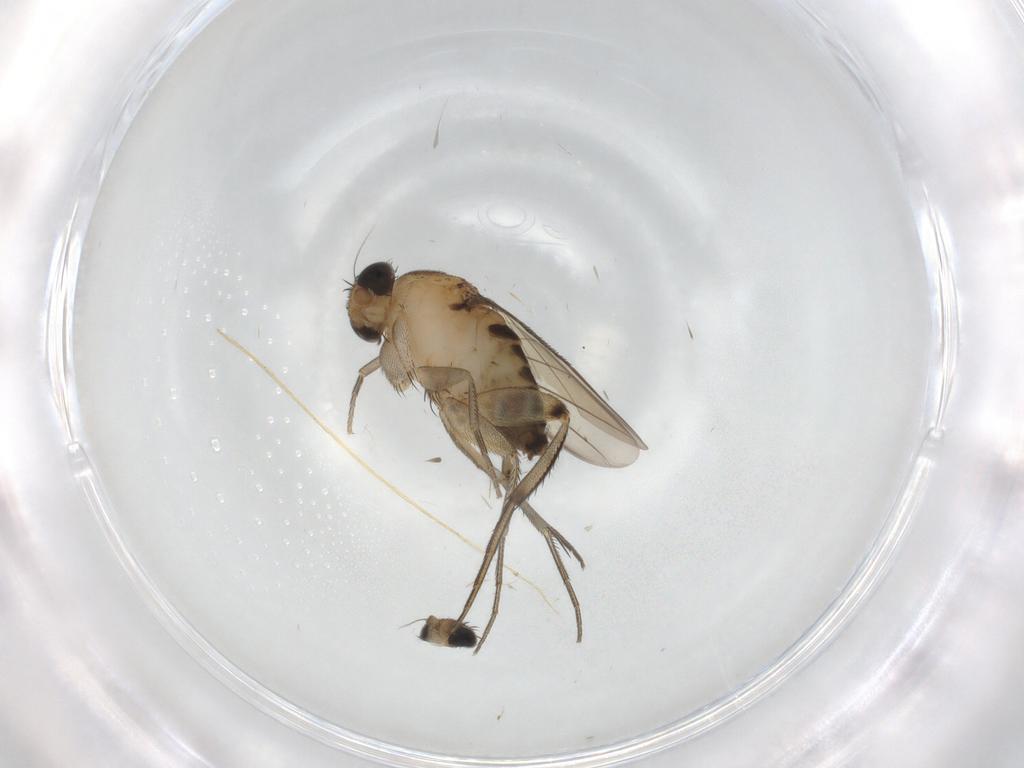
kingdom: Animalia
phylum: Arthropoda
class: Insecta
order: Diptera
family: Phoridae
